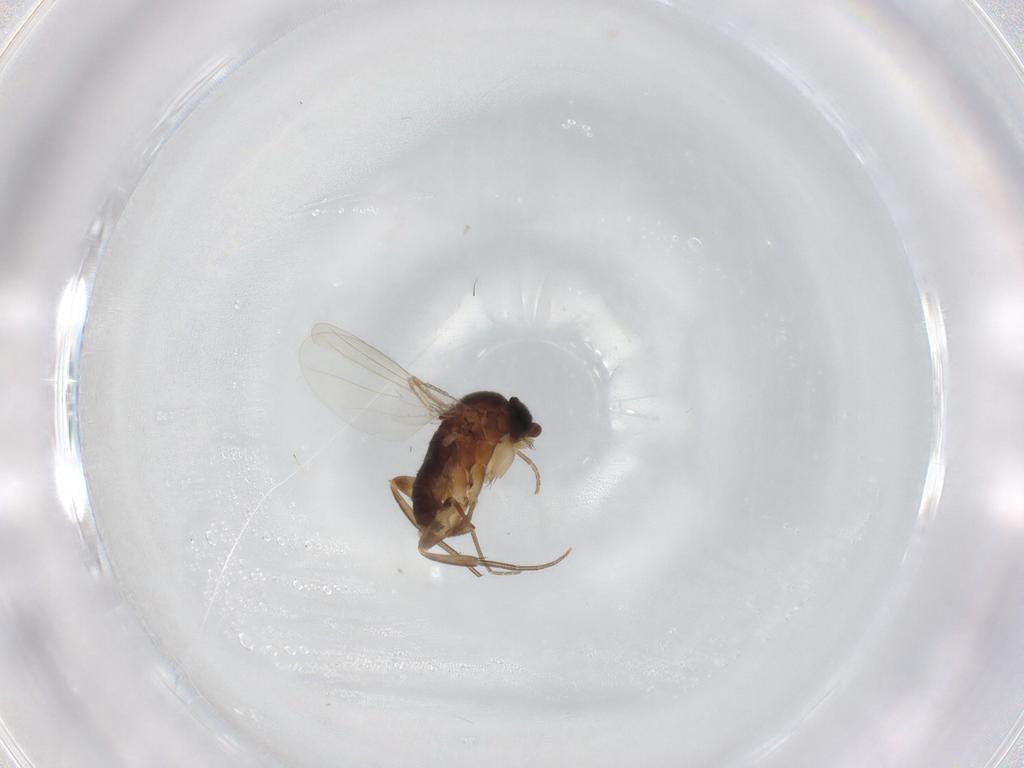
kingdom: Animalia
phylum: Arthropoda
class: Insecta
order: Diptera
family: Phoridae
